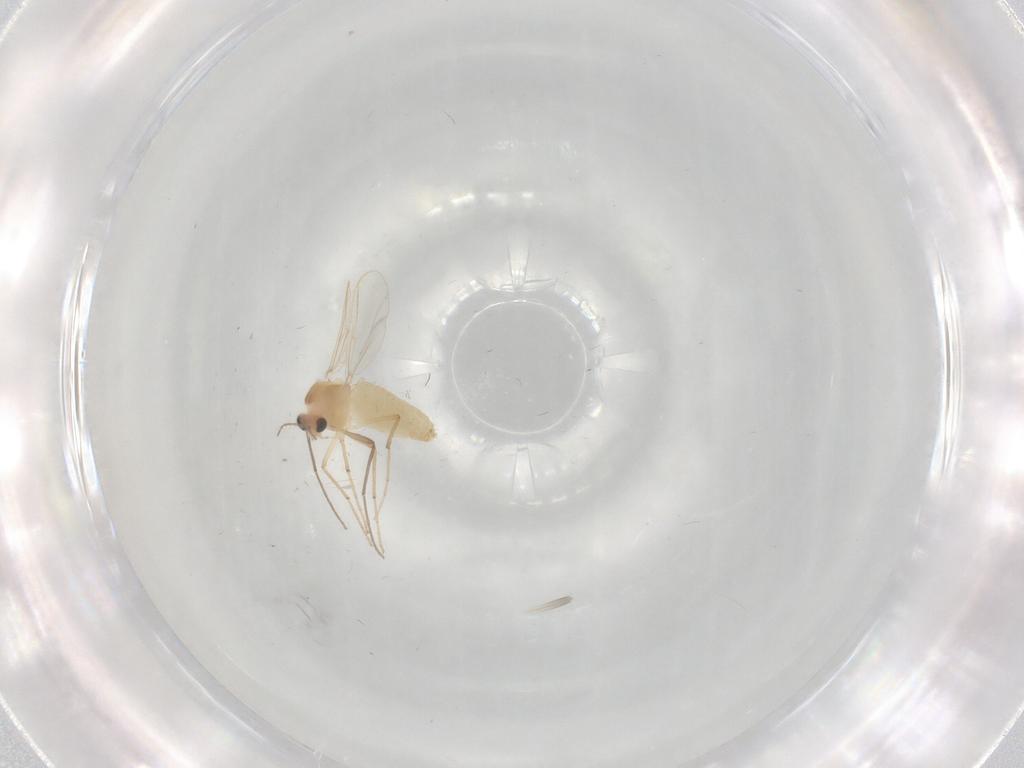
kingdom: Animalia
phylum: Arthropoda
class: Insecta
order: Diptera
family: Chironomidae
